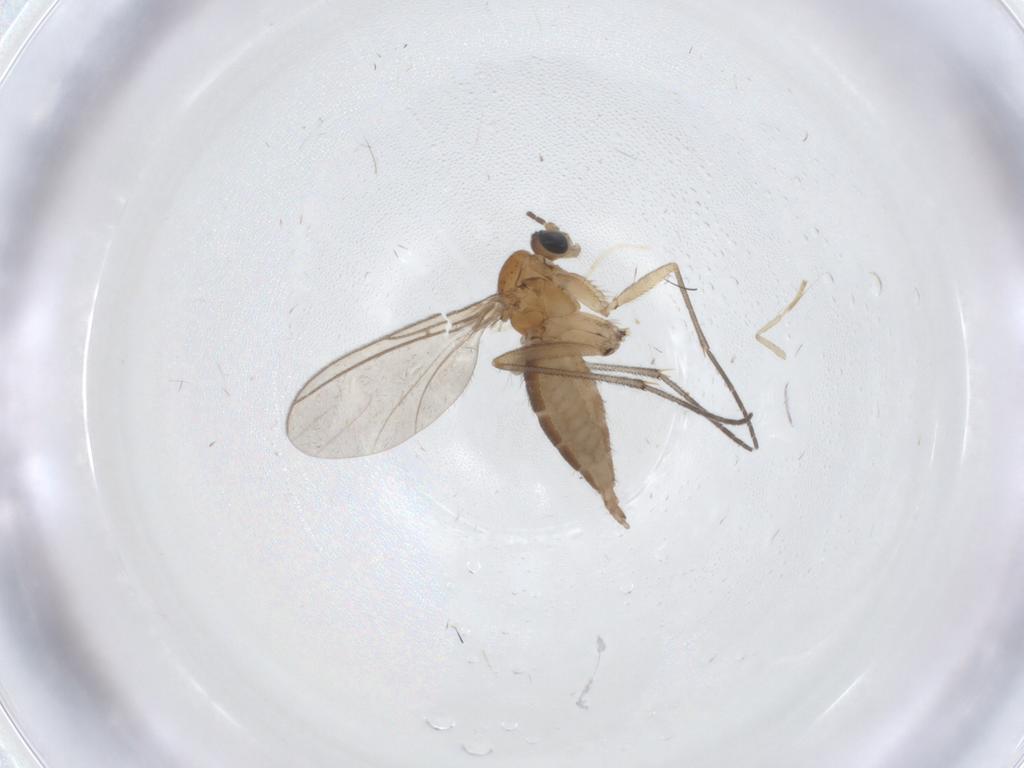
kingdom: Animalia
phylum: Arthropoda
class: Insecta
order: Diptera
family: Sciaridae
